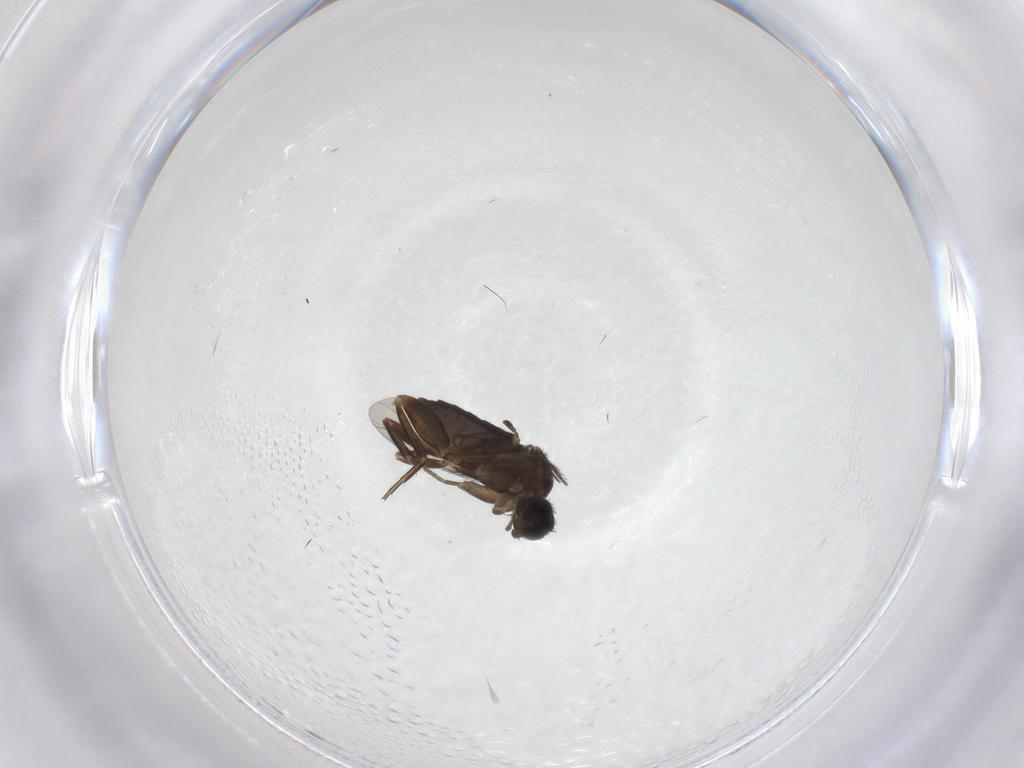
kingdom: Animalia
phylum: Arthropoda
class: Insecta
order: Diptera
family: Phoridae
